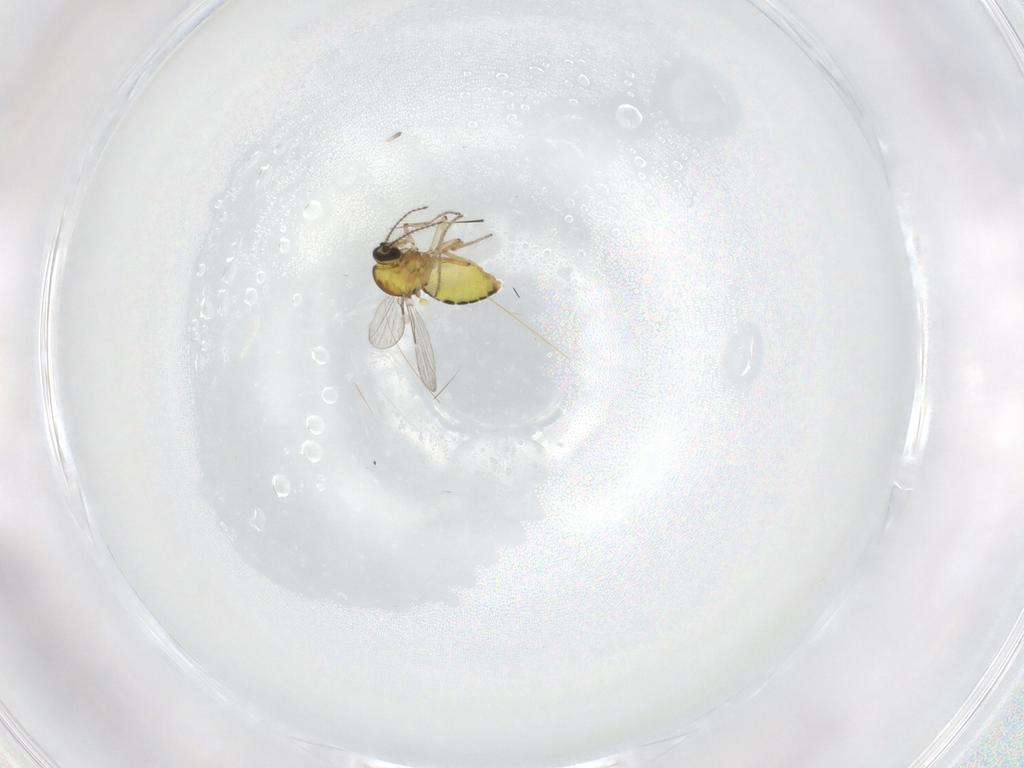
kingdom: Animalia
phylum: Arthropoda
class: Insecta
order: Diptera
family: Ceratopogonidae
